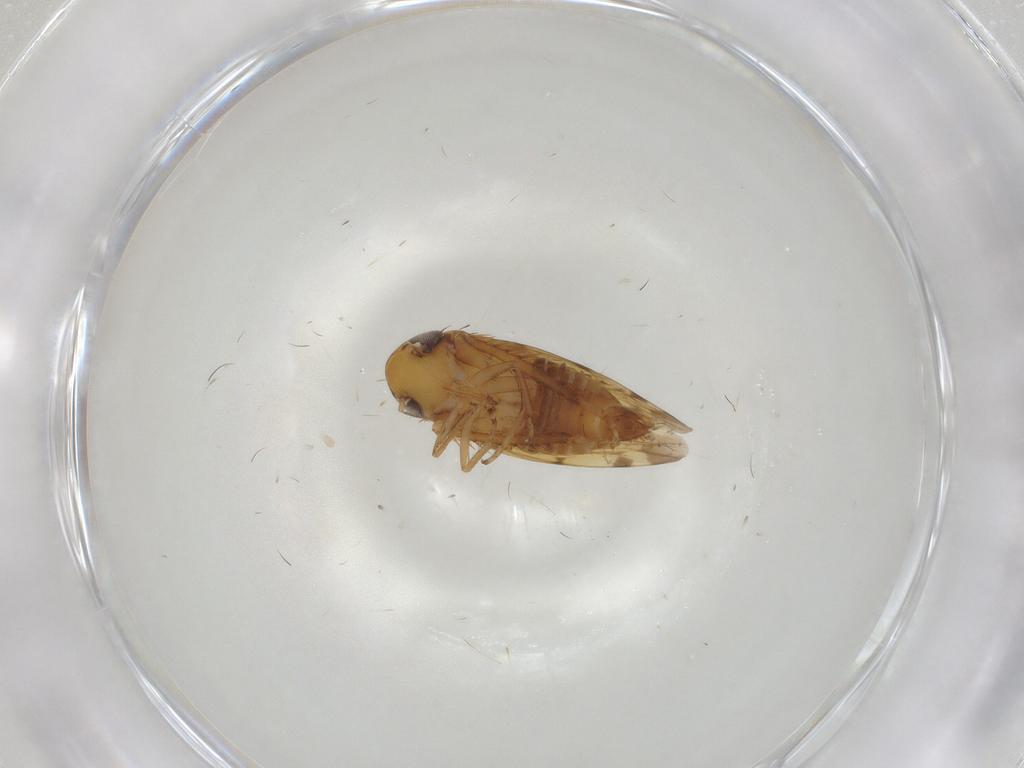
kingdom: Animalia
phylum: Arthropoda
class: Insecta
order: Hemiptera
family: Cicadellidae
